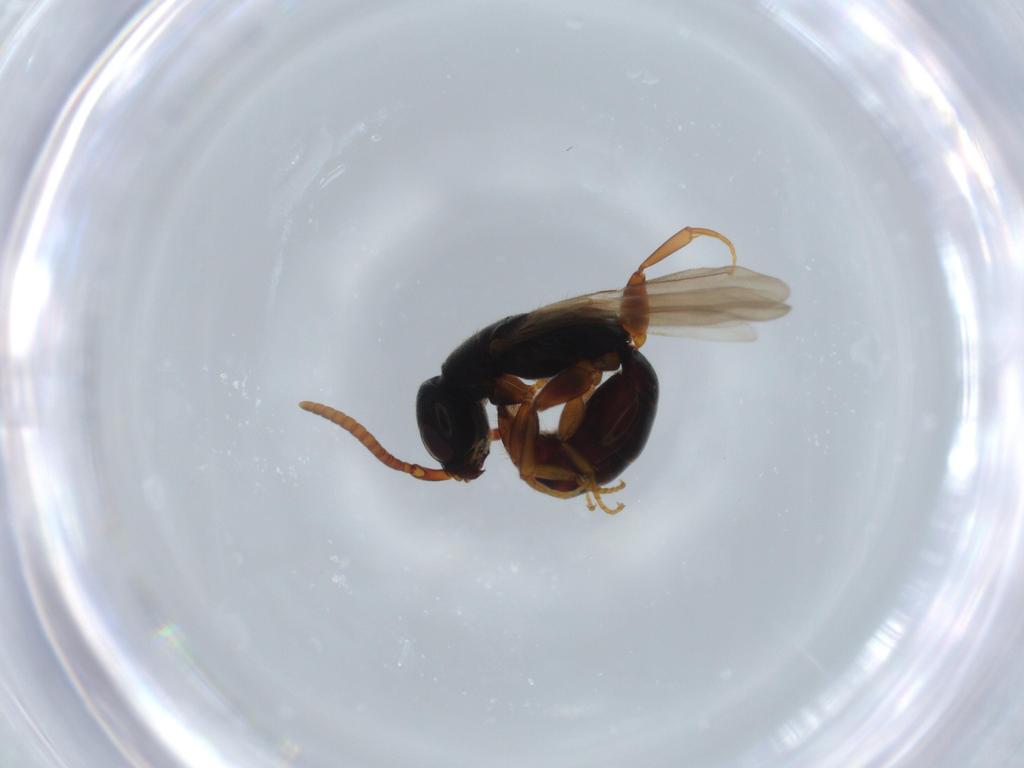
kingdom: Animalia
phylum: Arthropoda
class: Insecta
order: Hymenoptera
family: Bethylidae
